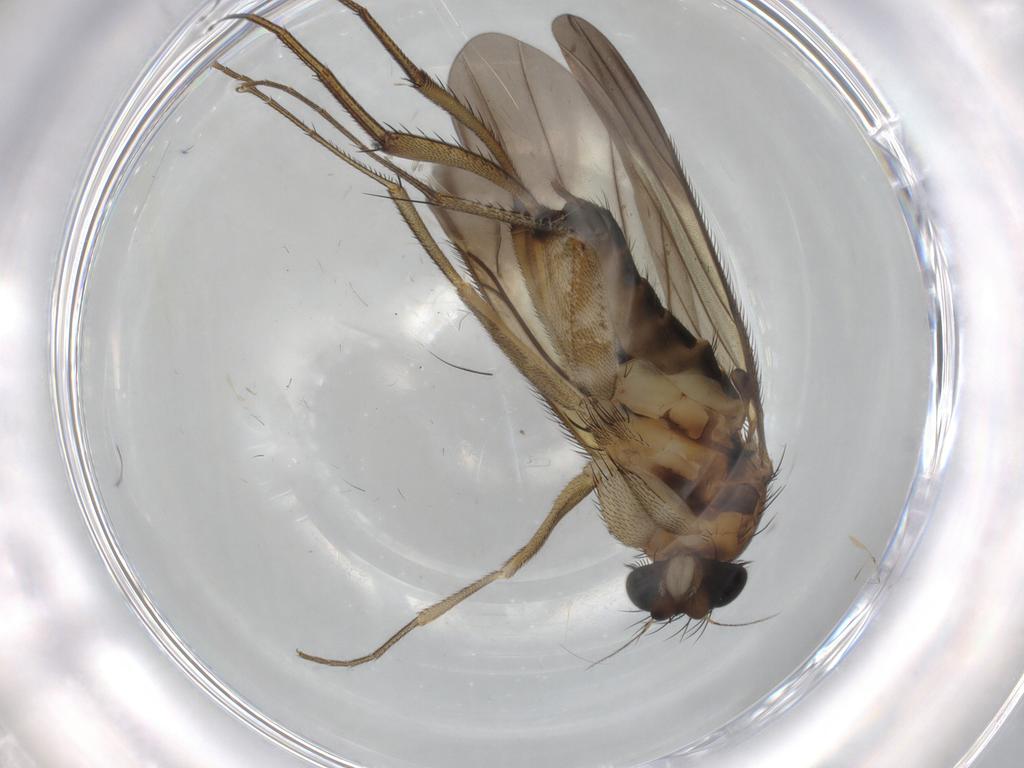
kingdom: Animalia
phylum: Arthropoda
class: Insecta
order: Diptera
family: Phoridae
